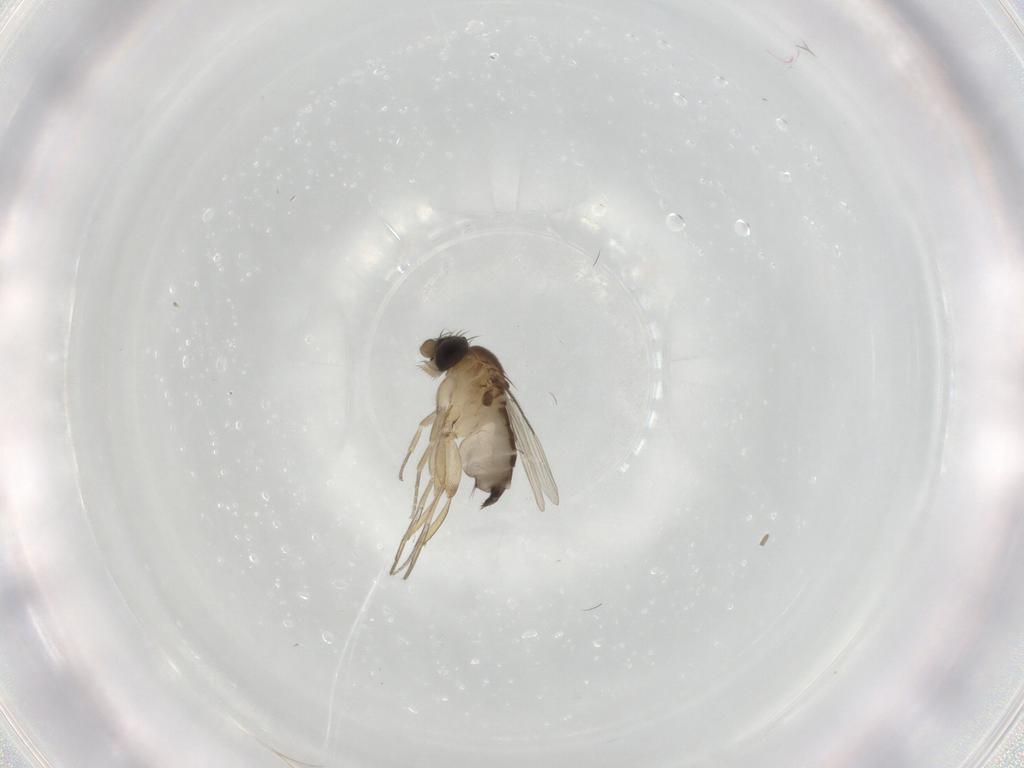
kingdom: Animalia
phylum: Arthropoda
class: Insecta
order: Diptera
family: Phoridae
